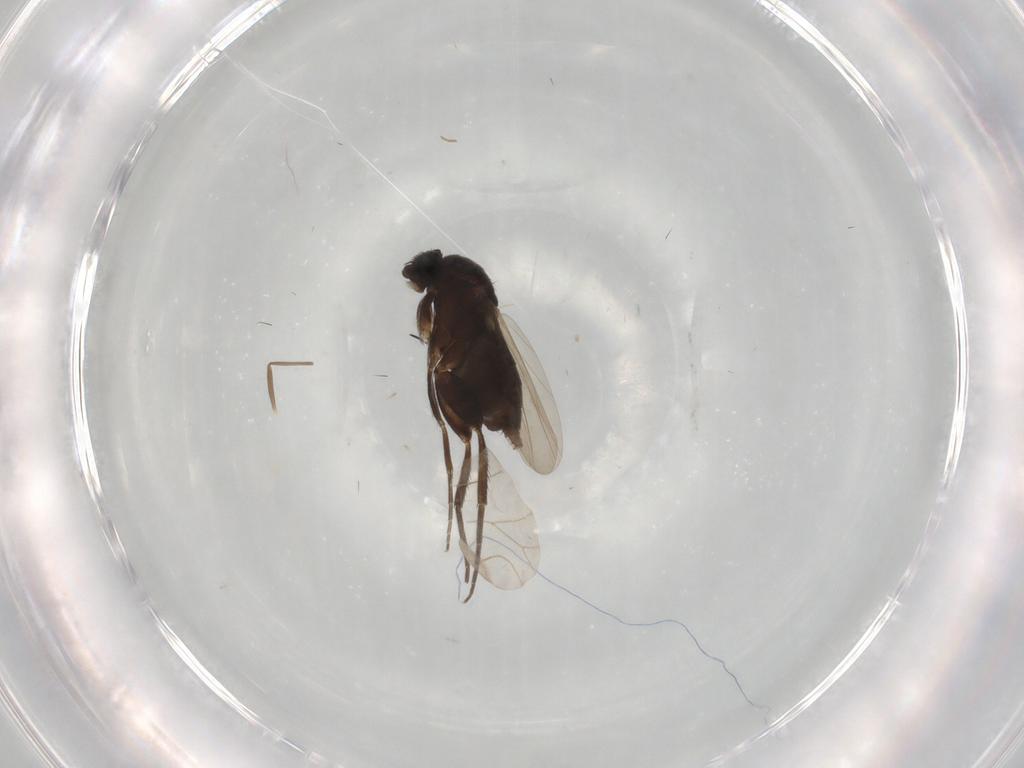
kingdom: Animalia
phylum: Arthropoda
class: Insecta
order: Diptera
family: Phoridae
